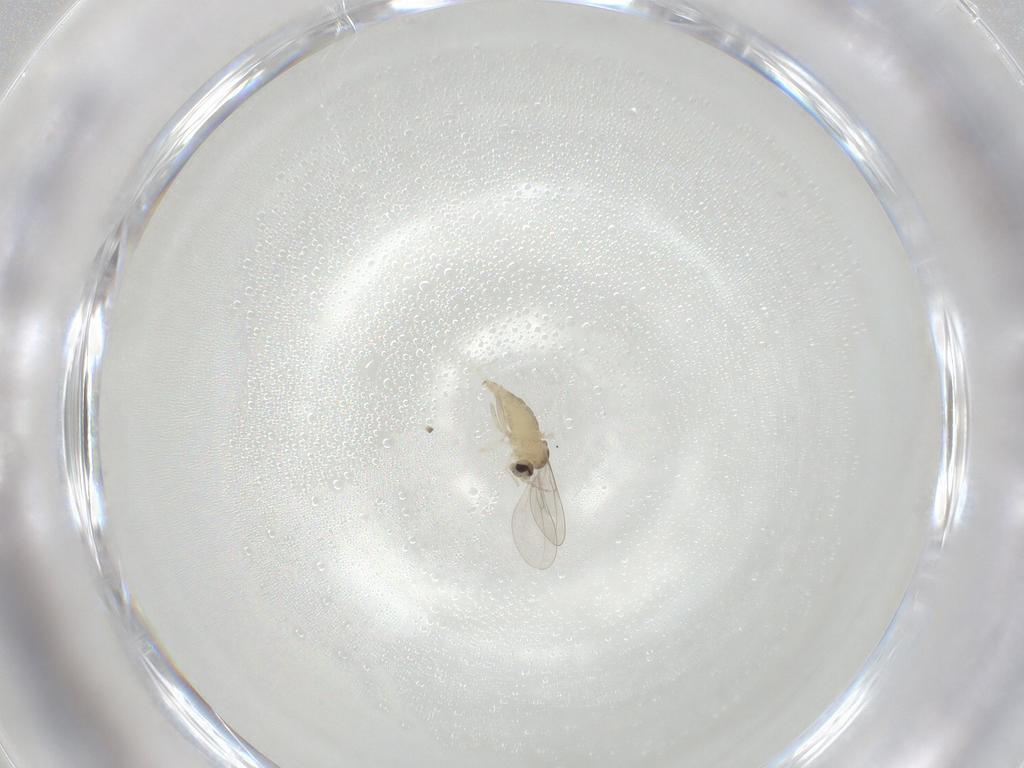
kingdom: Animalia
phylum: Arthropoda
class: Insecta
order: Diptera
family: Cecidomyiidae
